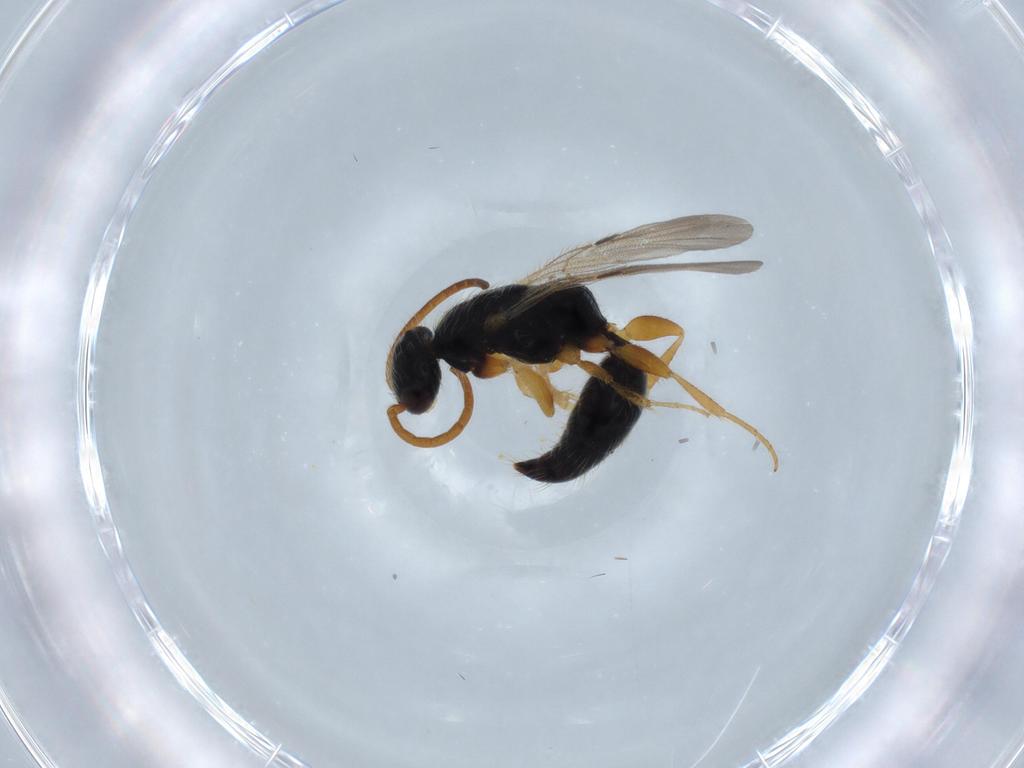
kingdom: Animalia
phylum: Arthropoda
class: Insecta
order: Hymenoptera
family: Bethylidae
